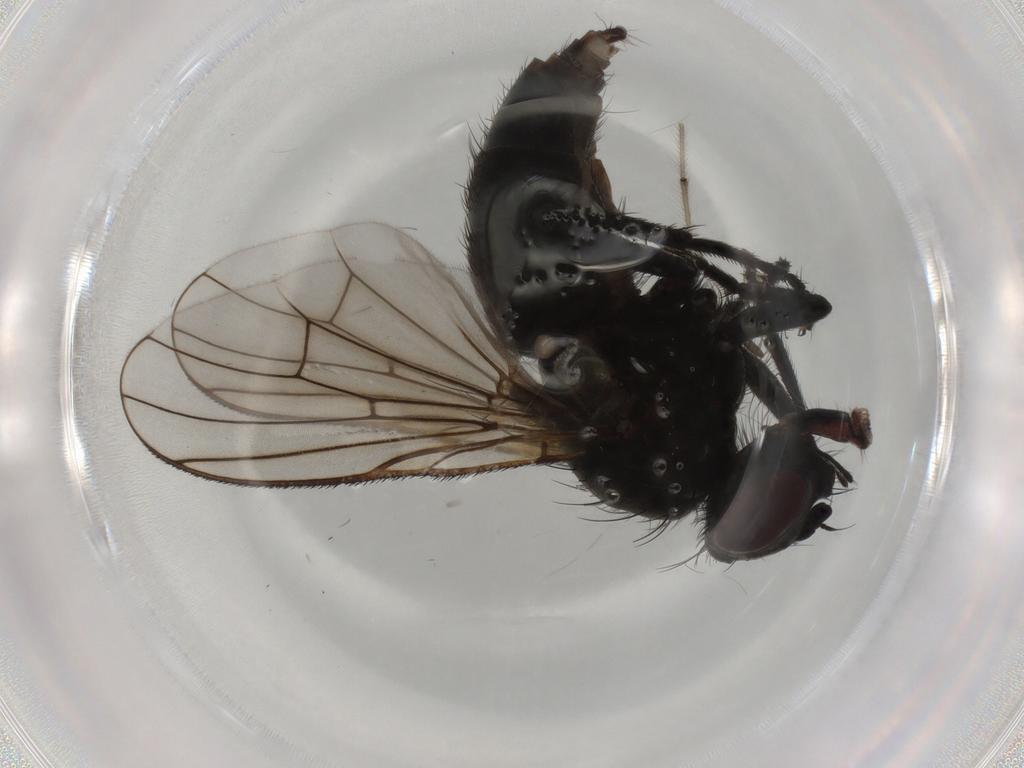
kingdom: Animalia
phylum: Arthropoda
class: Insecta
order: Diptera
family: Muscidae
